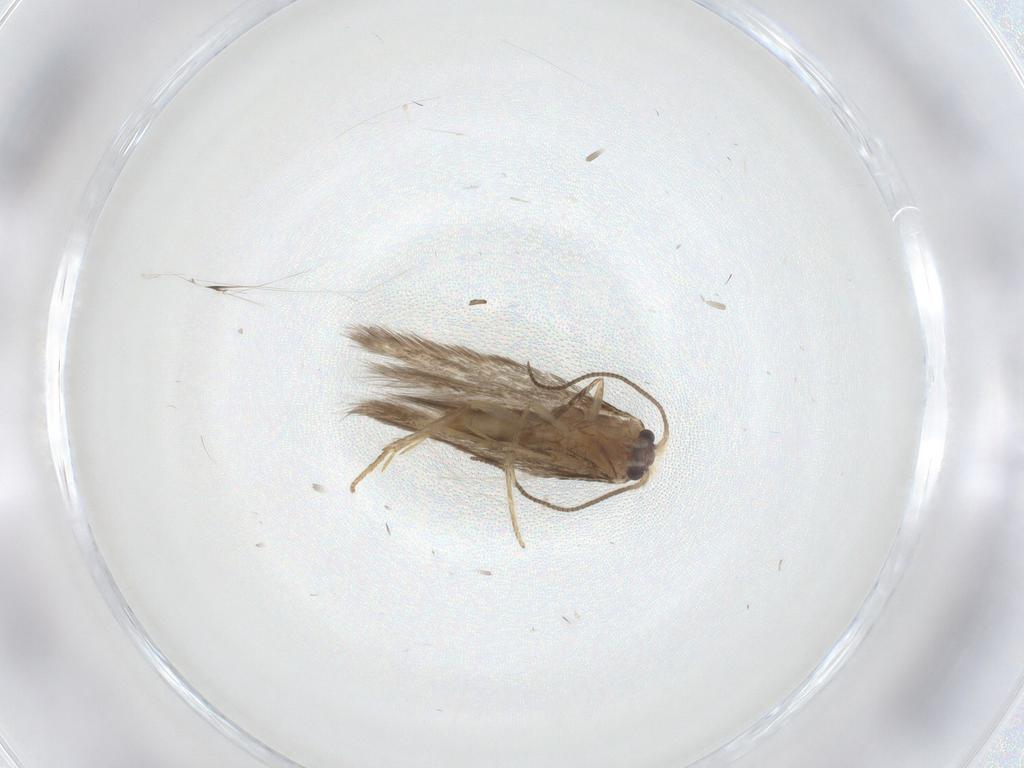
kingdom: Animalia
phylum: Arthropoda
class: Insecta
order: Lepidoptera
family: Nepticulidae
